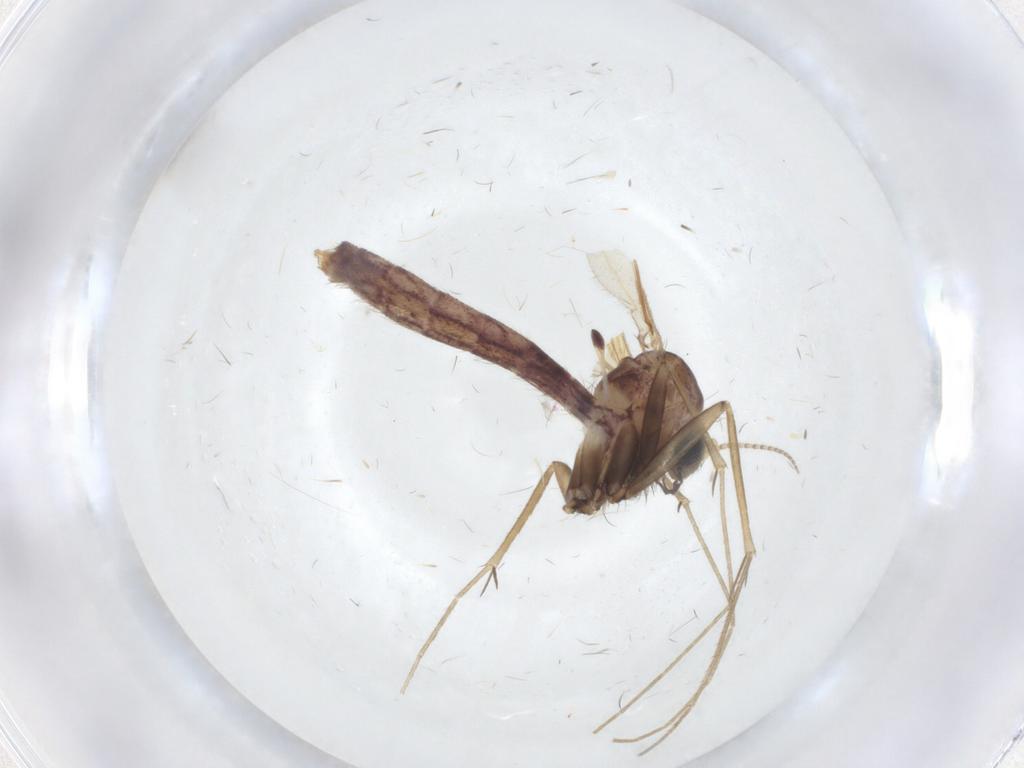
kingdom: Animalia
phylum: Arthropoda
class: Insecta
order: Diptera
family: Mycetophilidae
